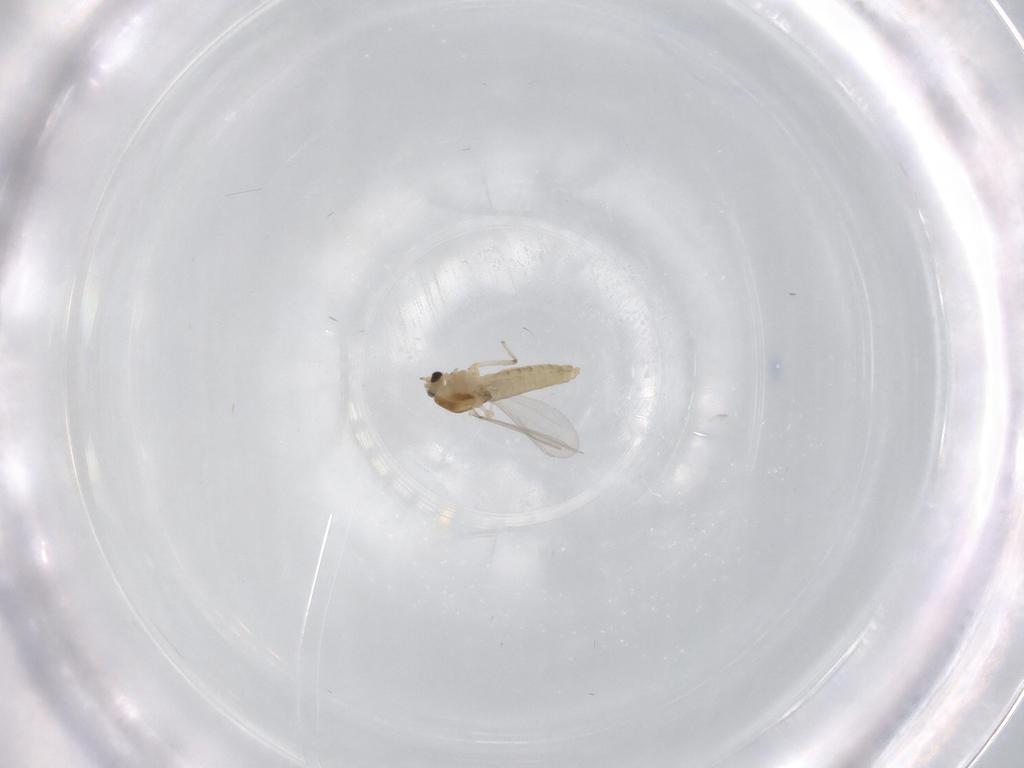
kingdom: Animalia
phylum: Arthropoda
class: Insecta
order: Diptera
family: Chironomidae
